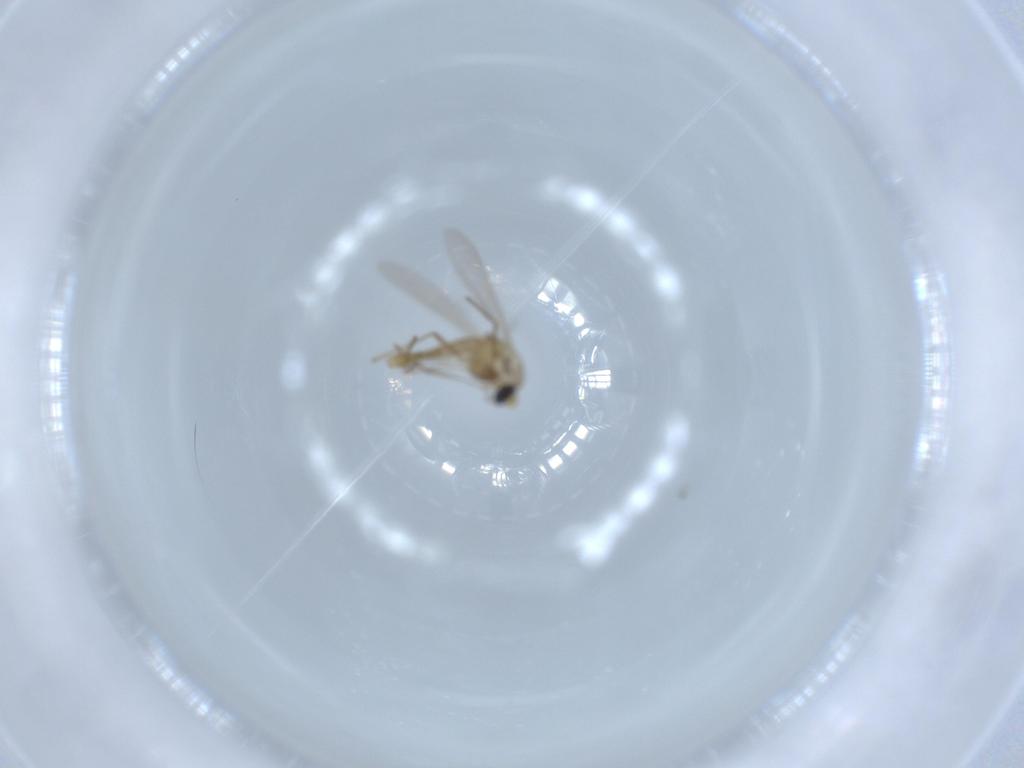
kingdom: Animalia
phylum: Arthropoda
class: Insecta
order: Diptera
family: Chironomidae
